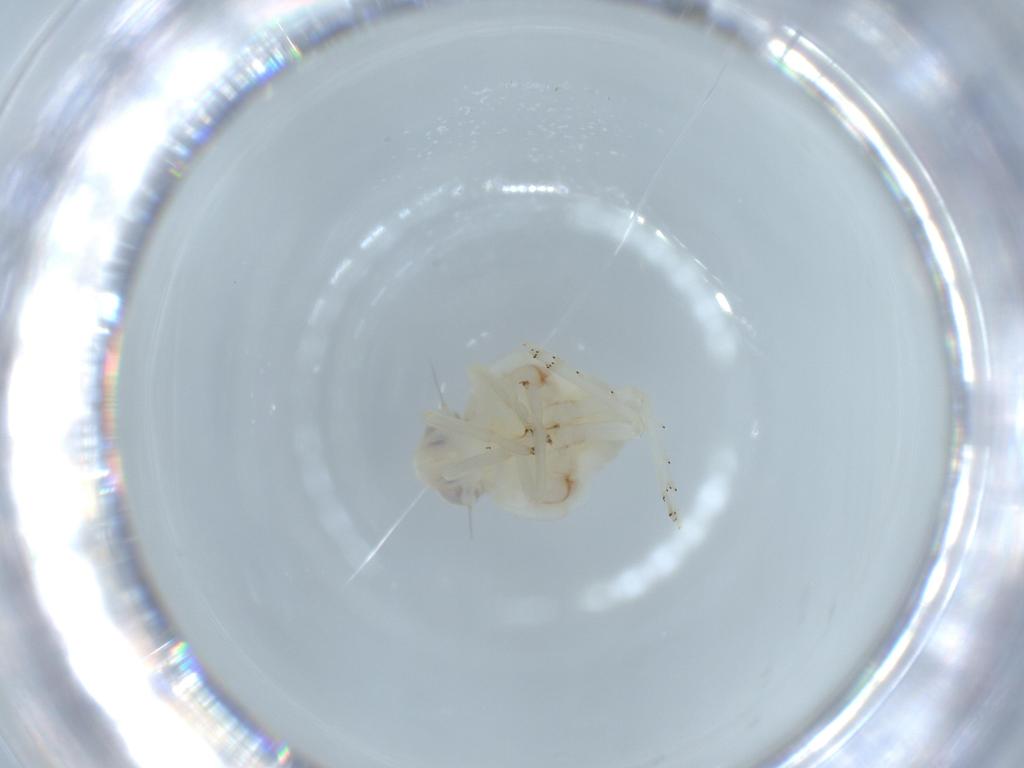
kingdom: Animalia
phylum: Arthropoda
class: Insecta
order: Hemiptera
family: Nogodinidae
